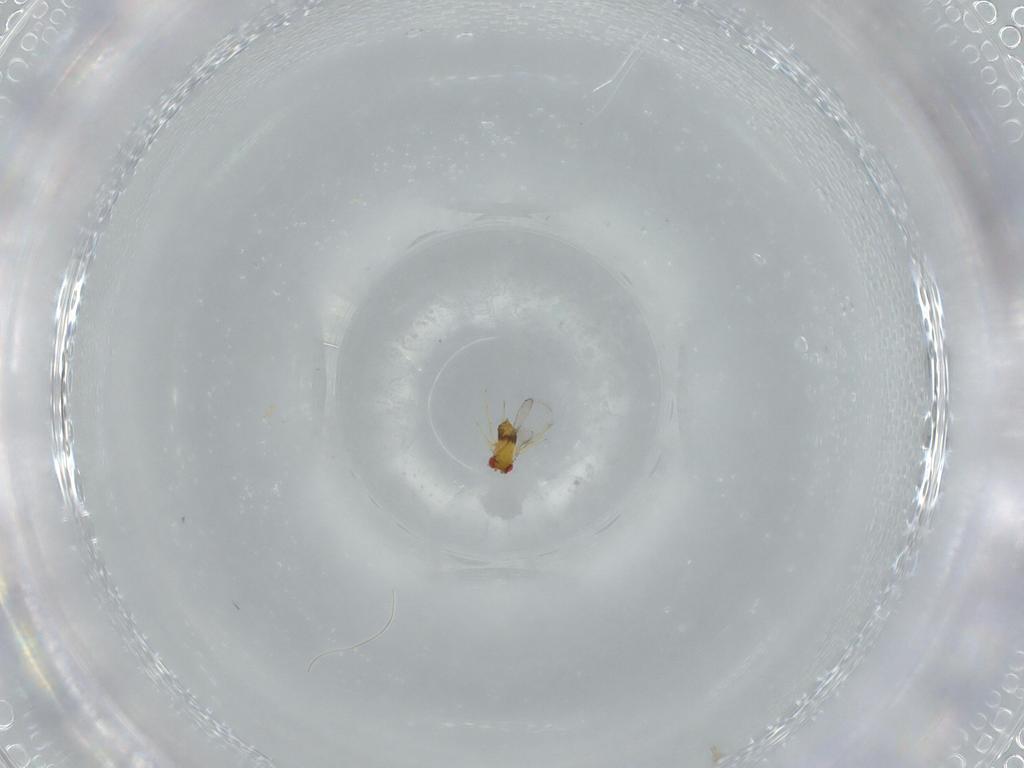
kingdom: Animalia
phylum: Arthropoda
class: Insecta
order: Hymenoptera
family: Trichogrammatidae
